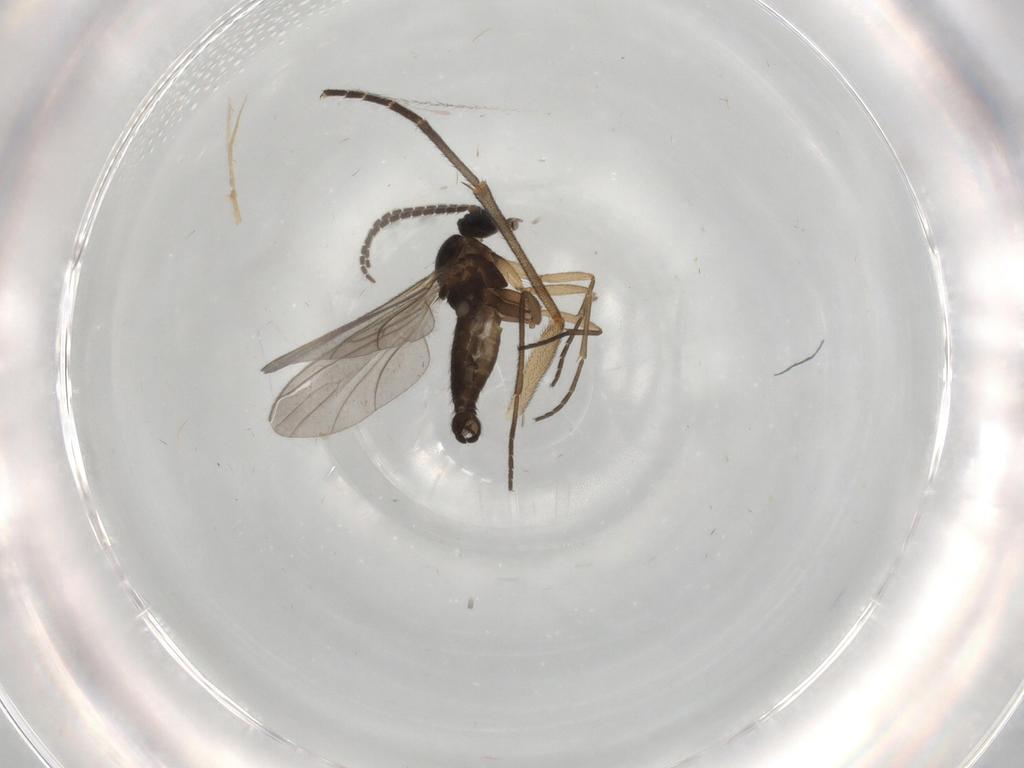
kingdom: Animalia
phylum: Arthropoda
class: Insecta
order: Diptera
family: Sciaridae
